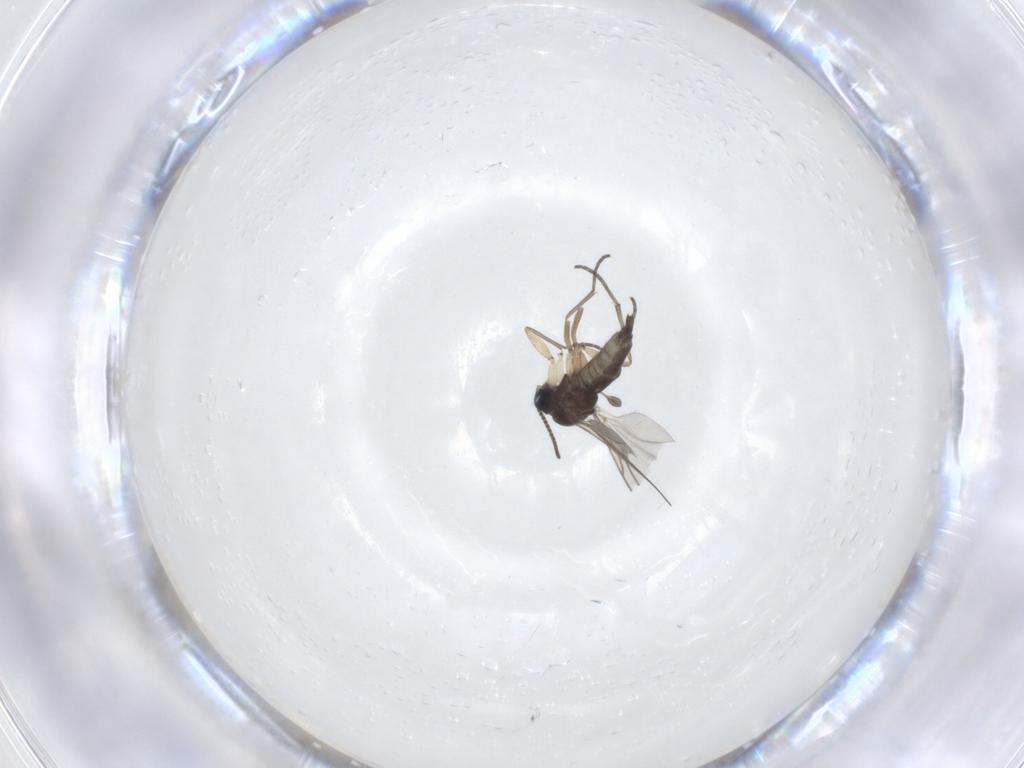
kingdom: Animalia
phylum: Arthropoda
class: Insecta
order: Diptera
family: Sciaridae
